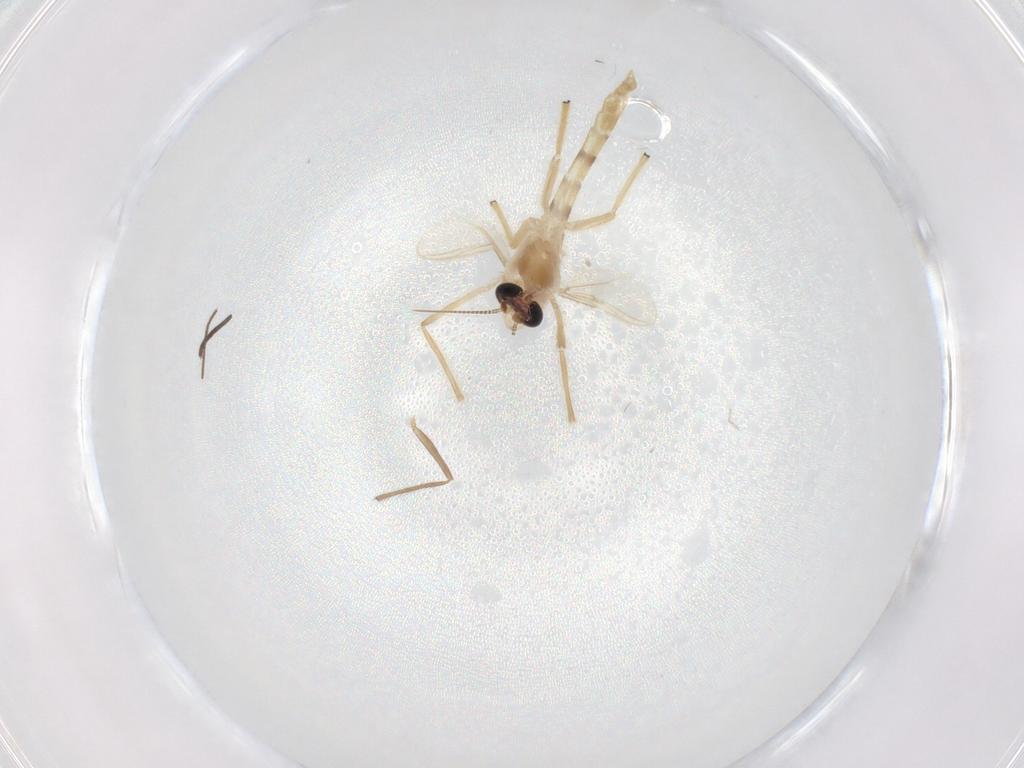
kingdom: Animalia
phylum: Arthropoda
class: Insecta
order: Diptera
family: Chironomidae
